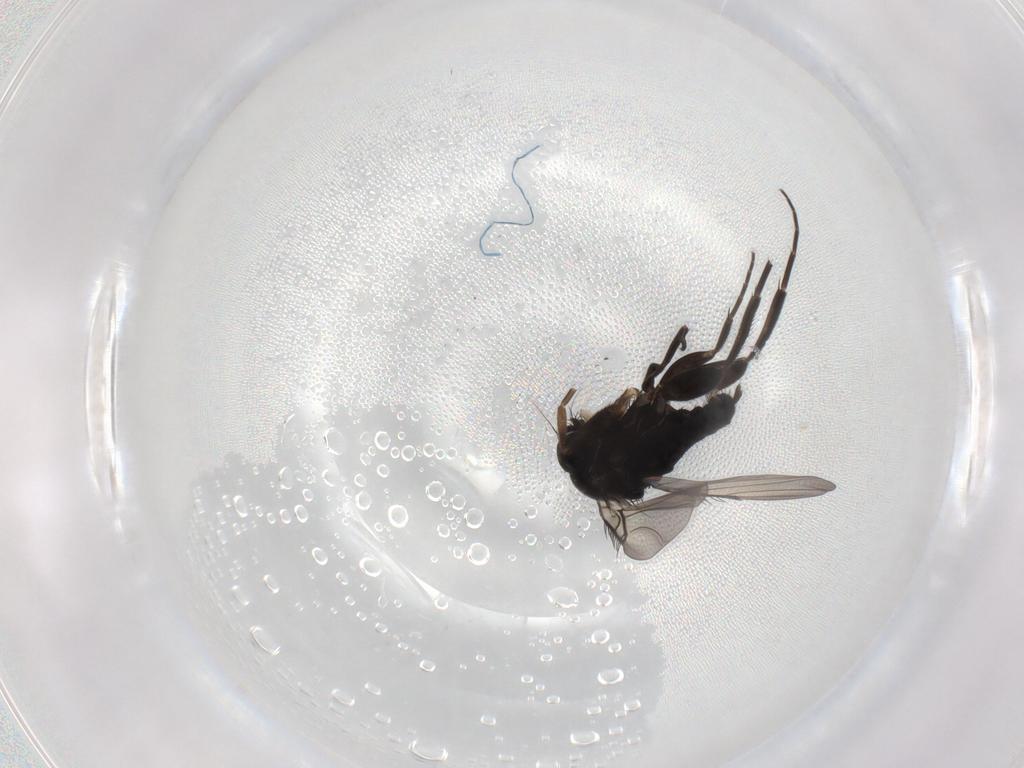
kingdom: Animalia
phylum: Arthropoda
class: Insecta
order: Diptera
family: Phoridae
